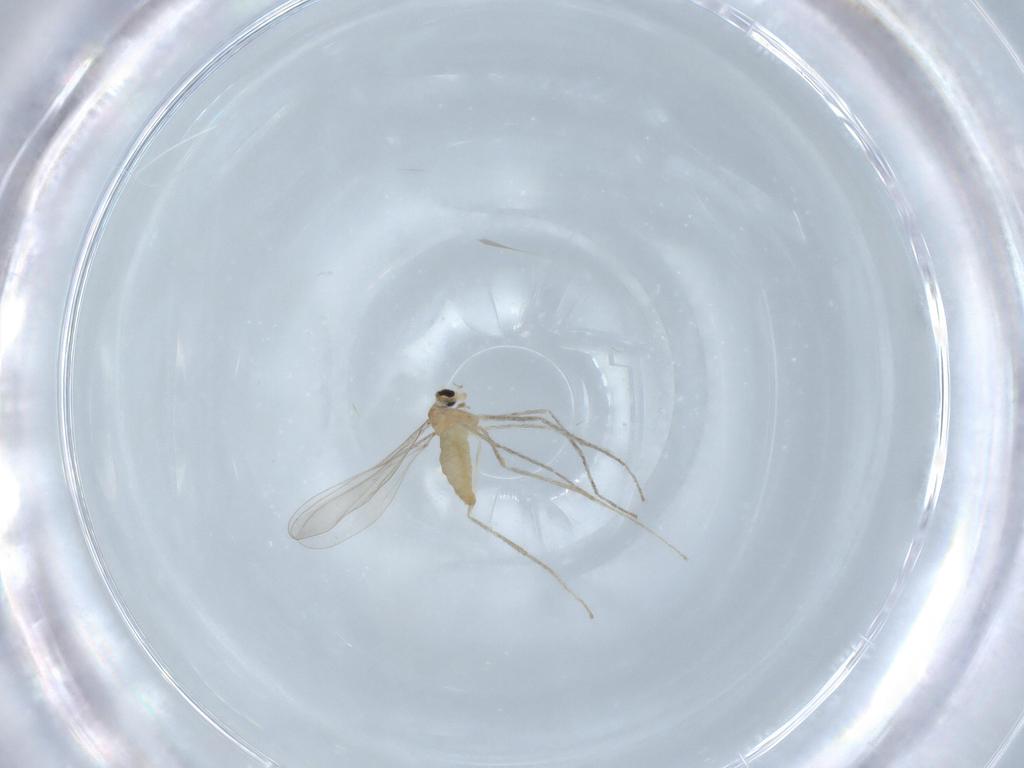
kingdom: Animalia
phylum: Arthropoda
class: Insecta
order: Diptera
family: Cecidomyiidae
